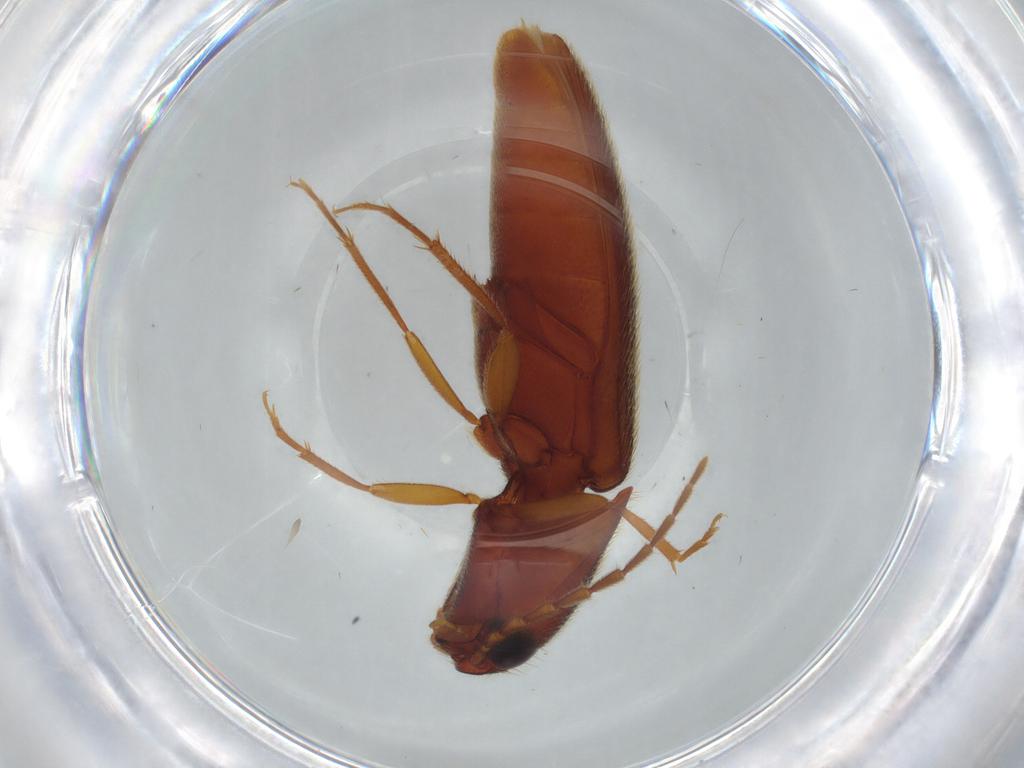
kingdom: Animalia
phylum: Arthropoda
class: Insecta
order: Coleoptera
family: Elateridae
